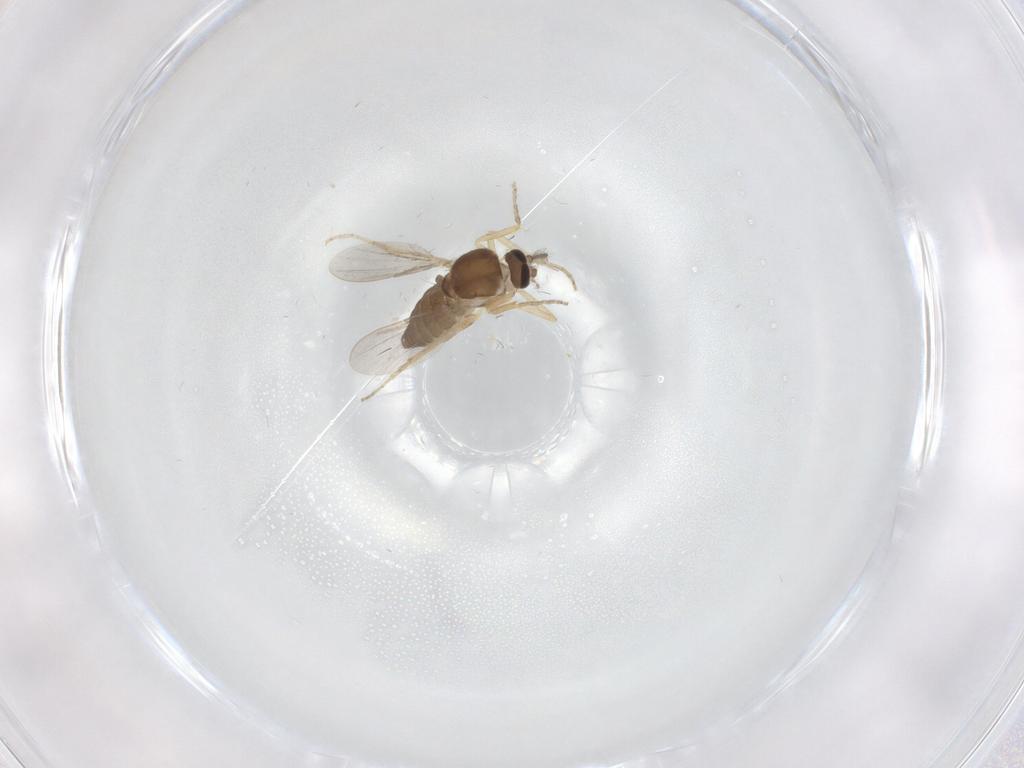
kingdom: Animalia
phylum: Arthropoda
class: Insecta
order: Diptera
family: Ceratopogonidae
